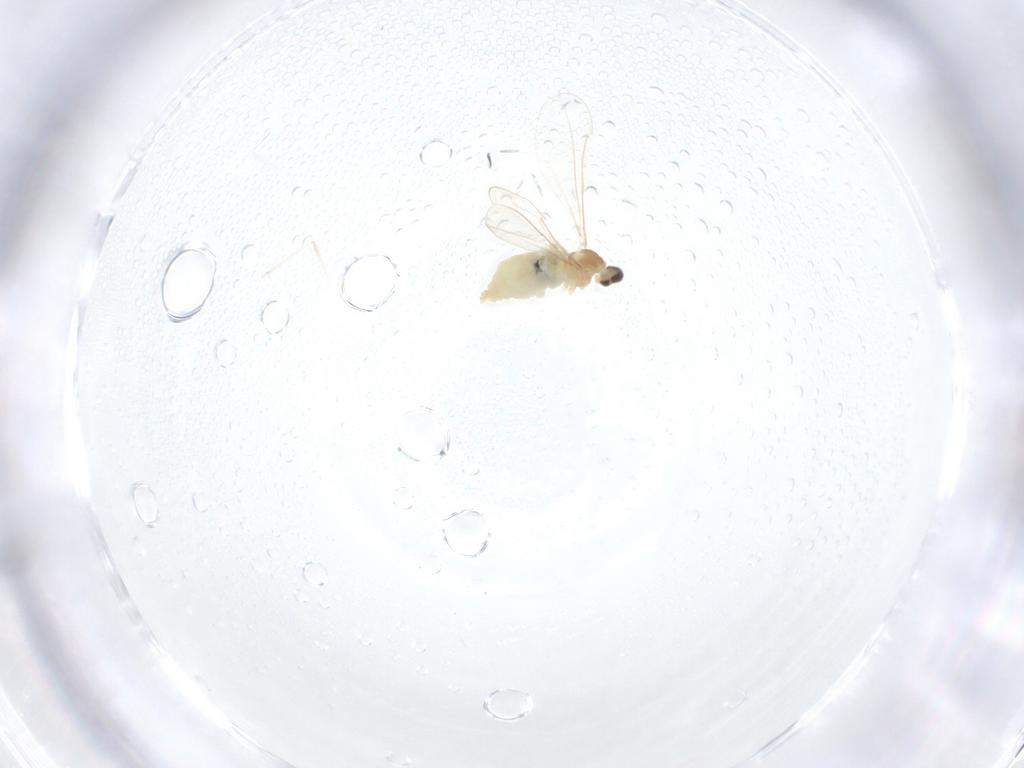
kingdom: Animalia
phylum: Arthropoda
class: Insecta
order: Diptera
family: Cecidomyiidae
